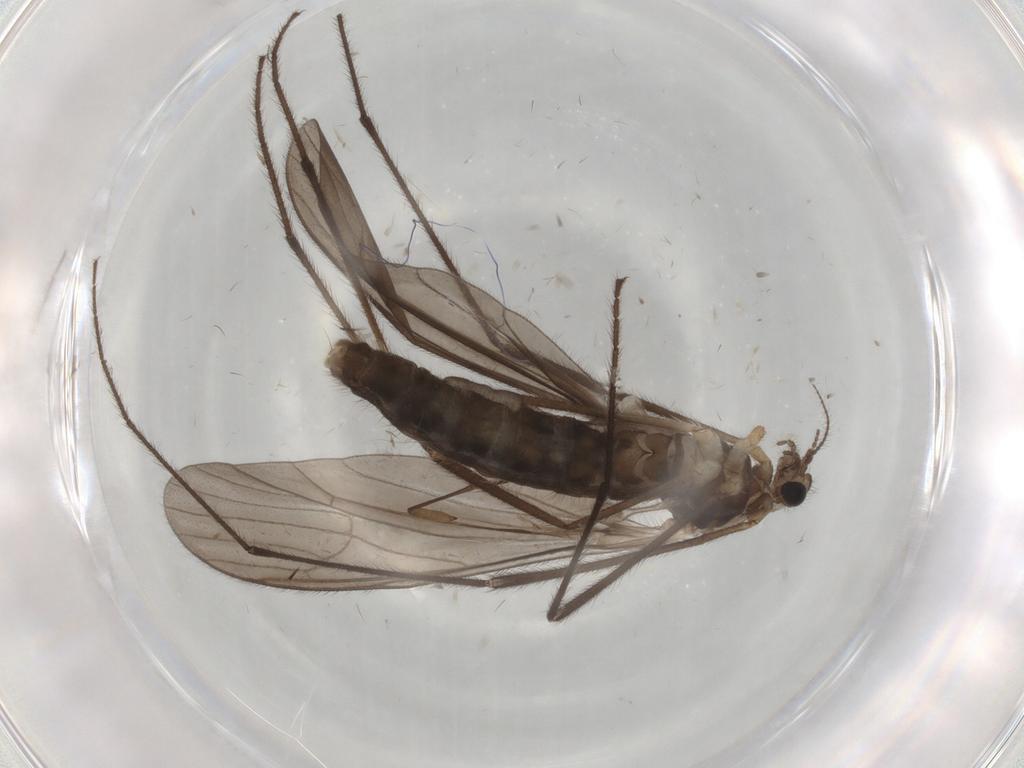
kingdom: Animalia
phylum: Arthropoda
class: Insecta
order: Diptera
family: Limoniidae
